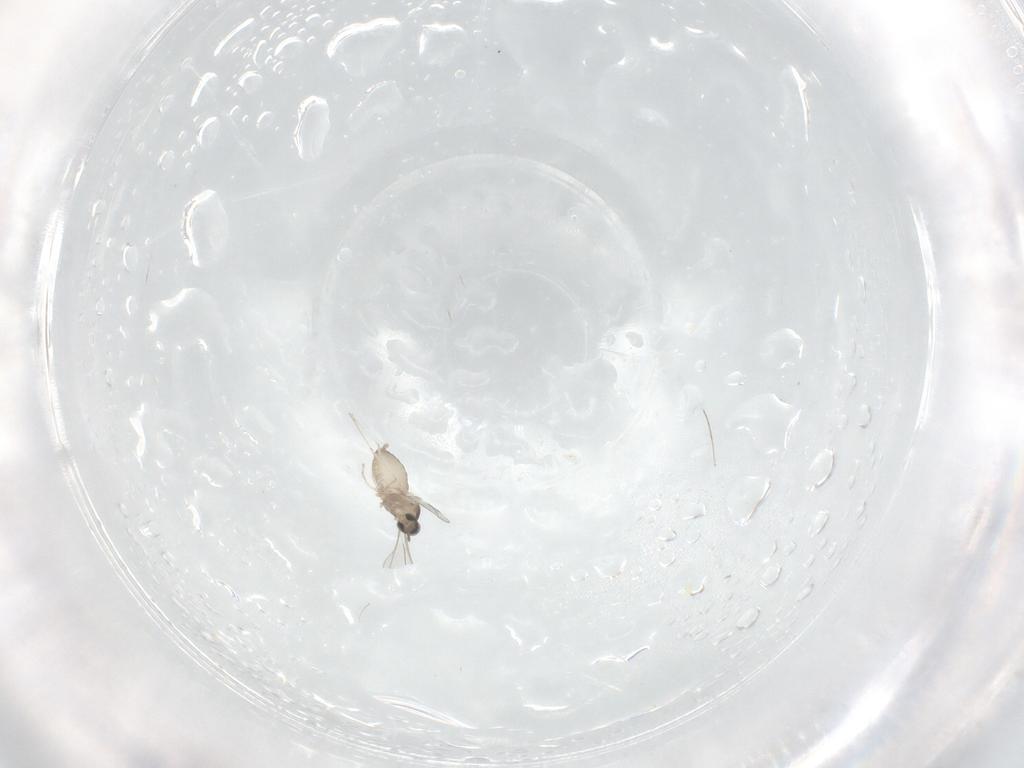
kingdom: Animalia
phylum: Arthropoda
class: Insecta
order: Diptera
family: Cecidomyiidae
